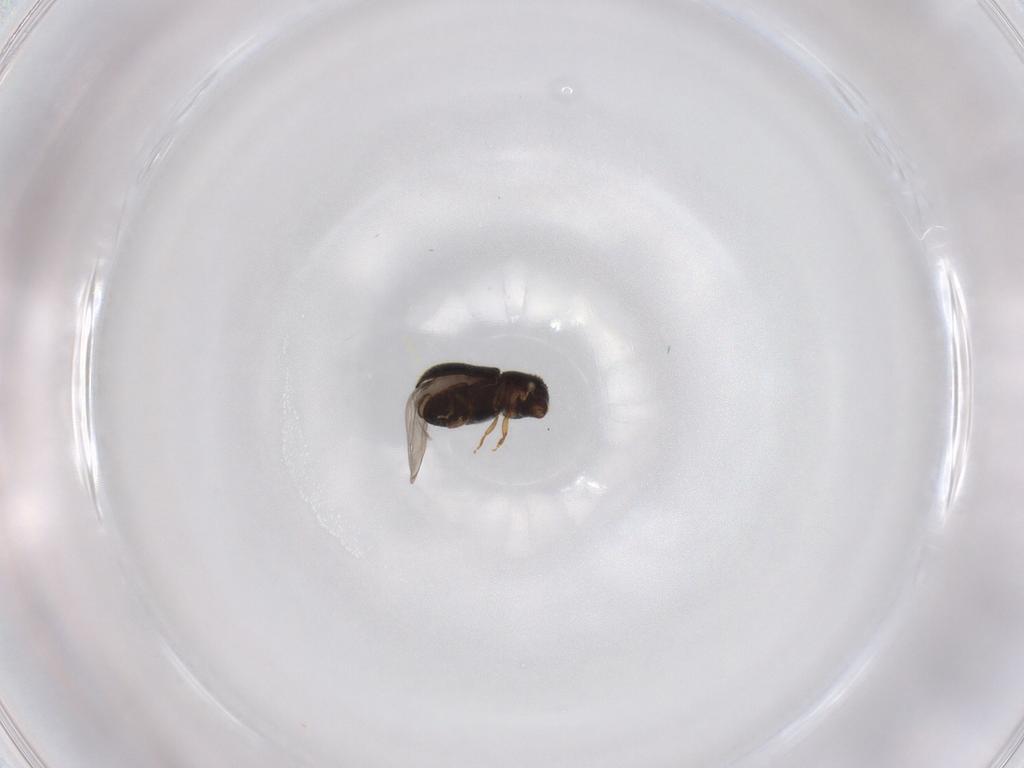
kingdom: Animalia
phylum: Arthropoda
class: Insecta
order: Coleoptera
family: Curculionidae
